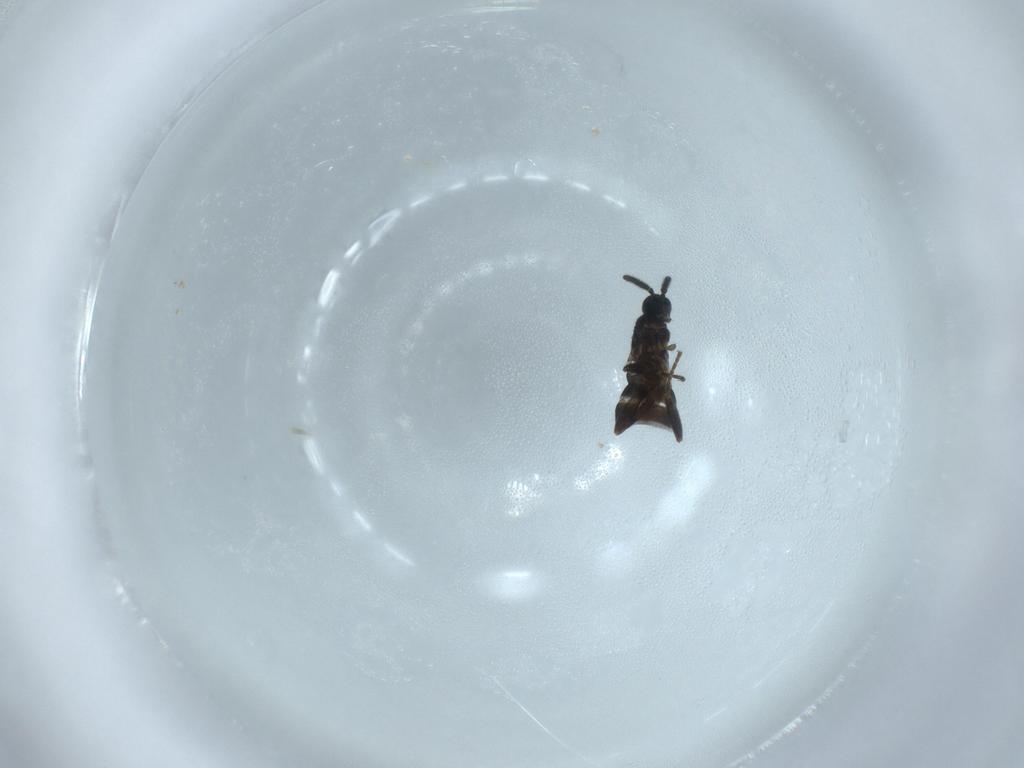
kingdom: Animalia
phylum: Arthropoda
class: Insecta
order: Diptera
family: Scatopsidae
